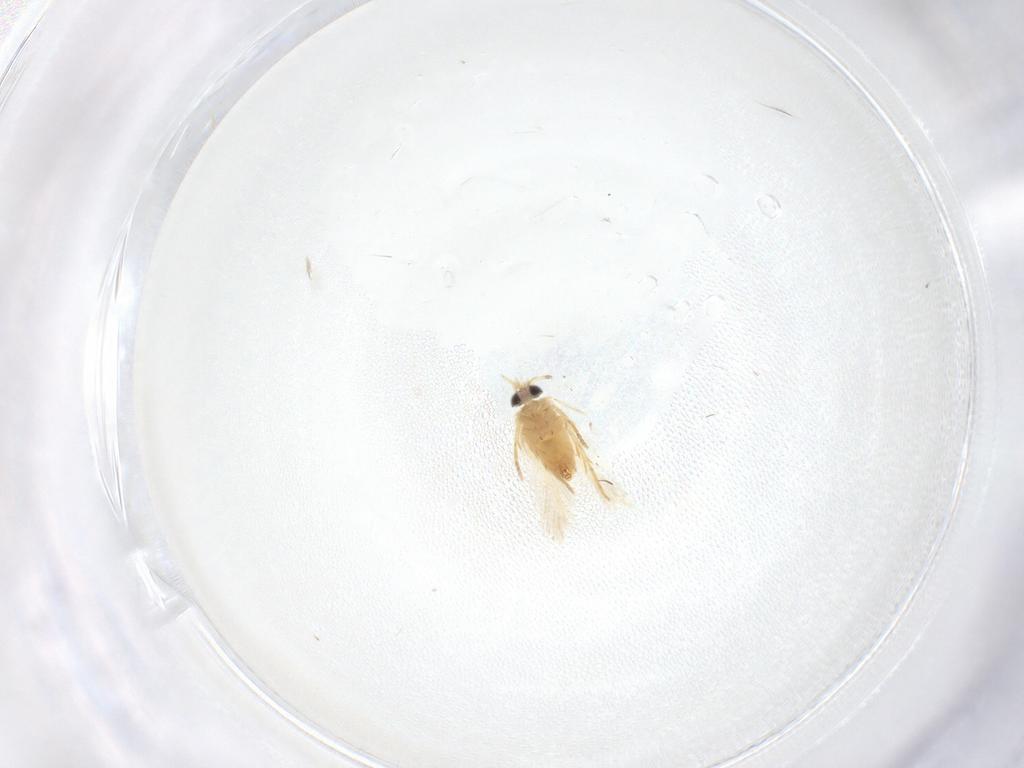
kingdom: Animalia
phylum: Arthropoda
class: Insecta
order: Lepidoptera
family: Crambidae
